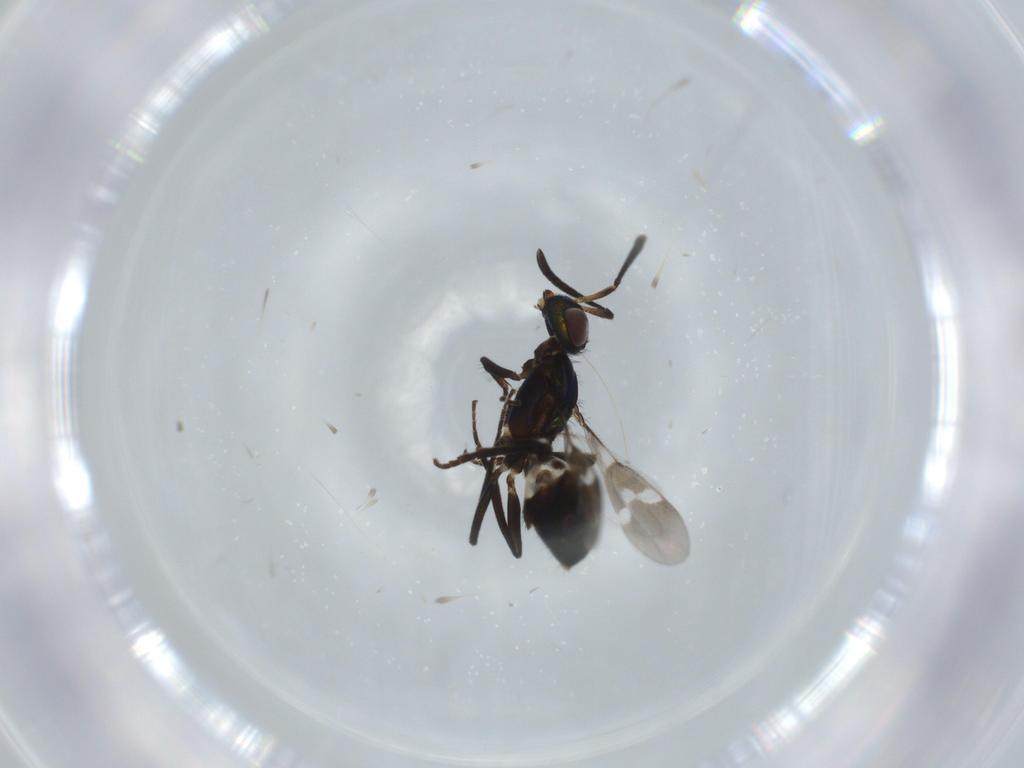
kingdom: Animalia
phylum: Arthropoda
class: Insecta
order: Hymenoptera
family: Eupelmidae
